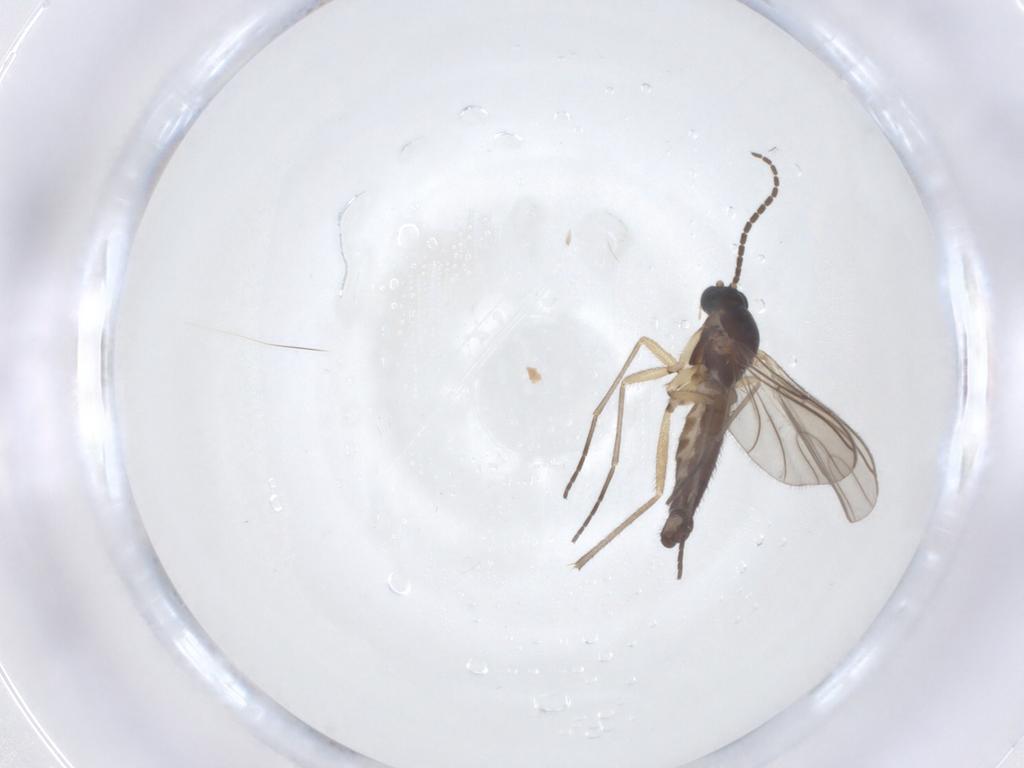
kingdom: Animalia
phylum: Arthropoda
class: Insecta
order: Diptera
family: Sciaridae
